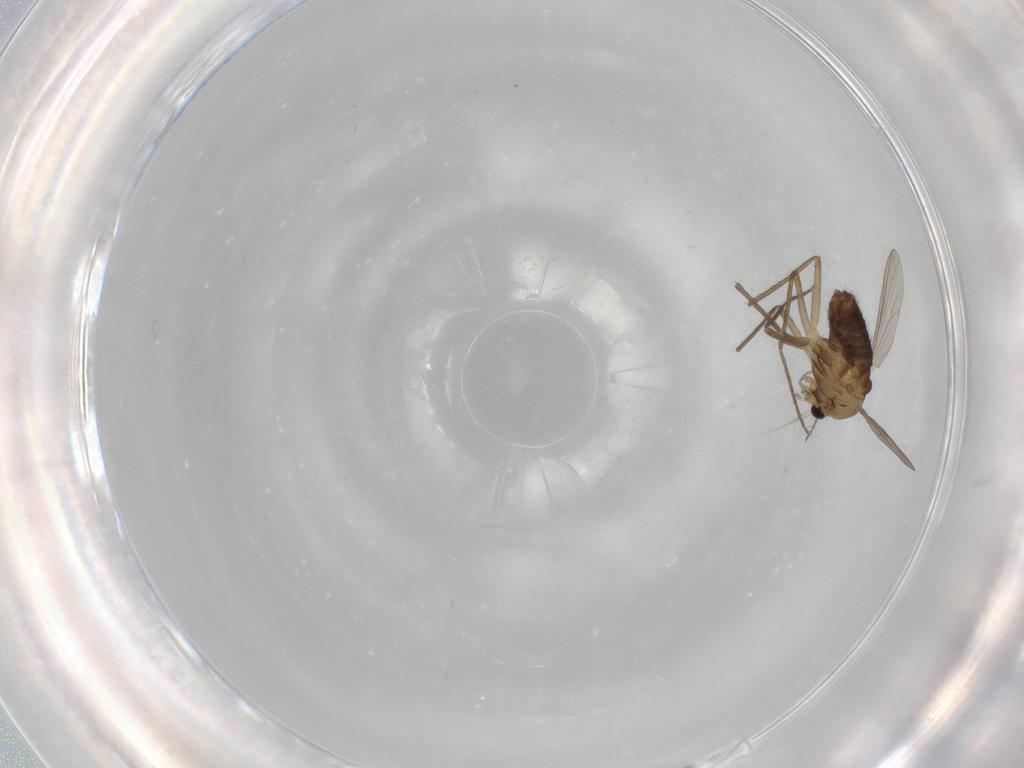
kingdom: Animalia
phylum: Arthropoda
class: Insecta
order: Diptera
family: Chironomidae
